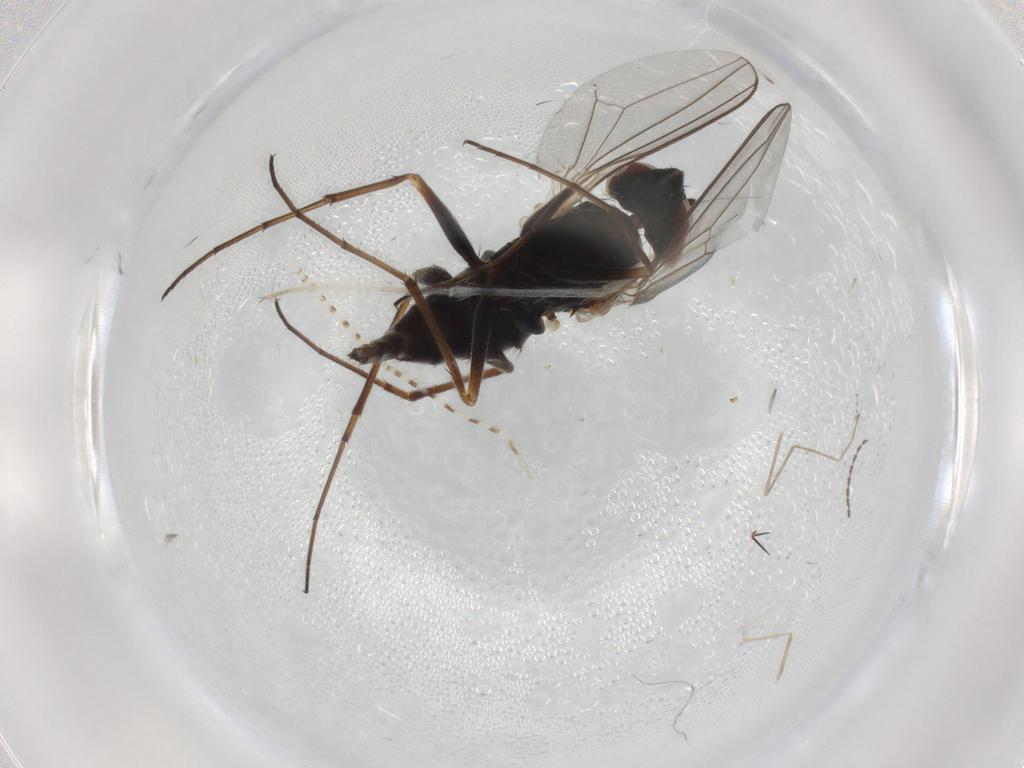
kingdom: Animalia
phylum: Arthropoda
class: Insecta
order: Diptera
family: Dolichopodidae
